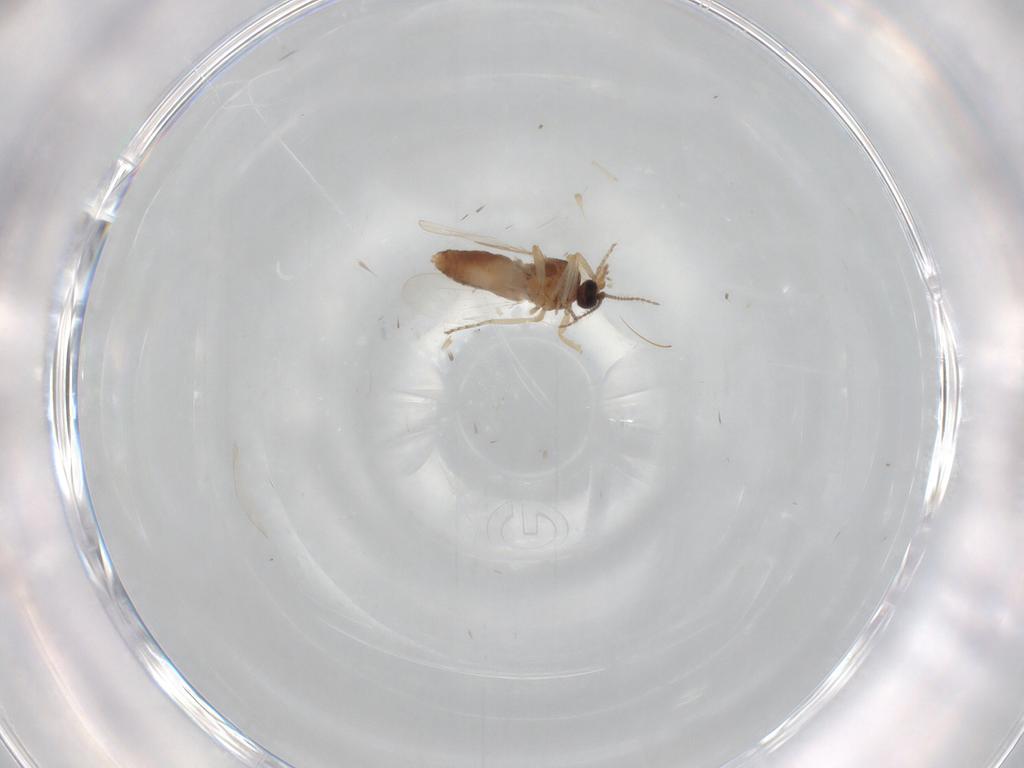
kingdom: Animalia
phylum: Arthropoda
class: Insecta
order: Diptera
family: Ceratopogonidae
